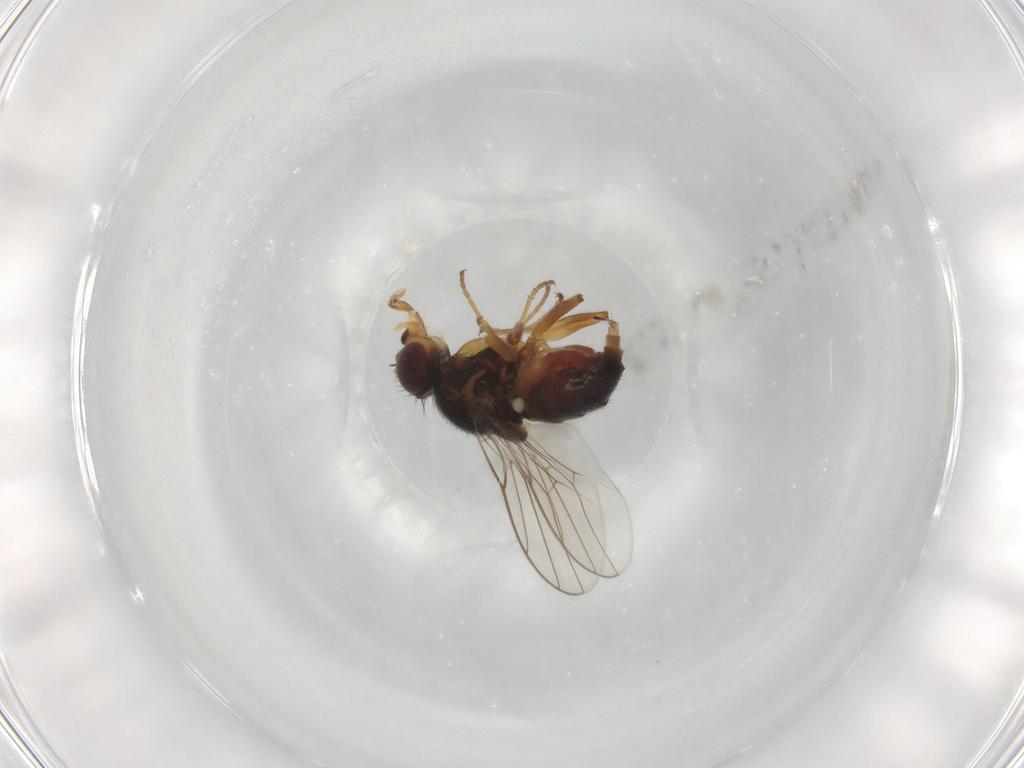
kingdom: Animalia
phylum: Arthropoda
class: Insecta
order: Diptera
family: Chloropidae
